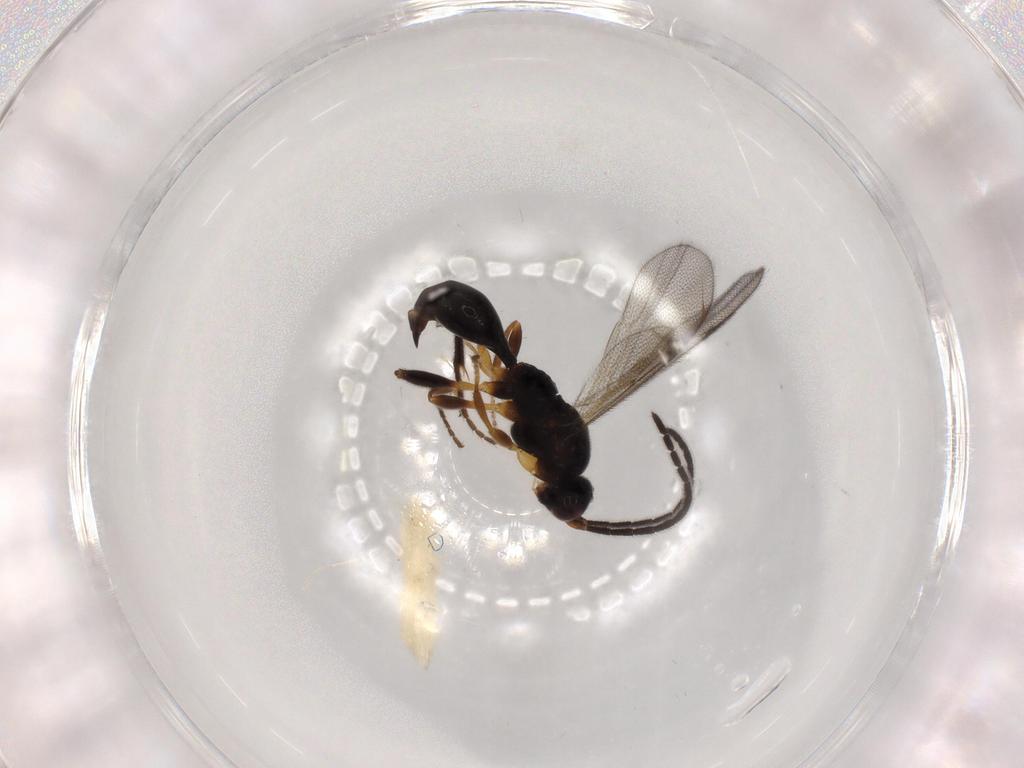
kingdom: Animalia
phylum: Arthropoda
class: Insecta
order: Hymenoptera
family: Proctotrupidae
